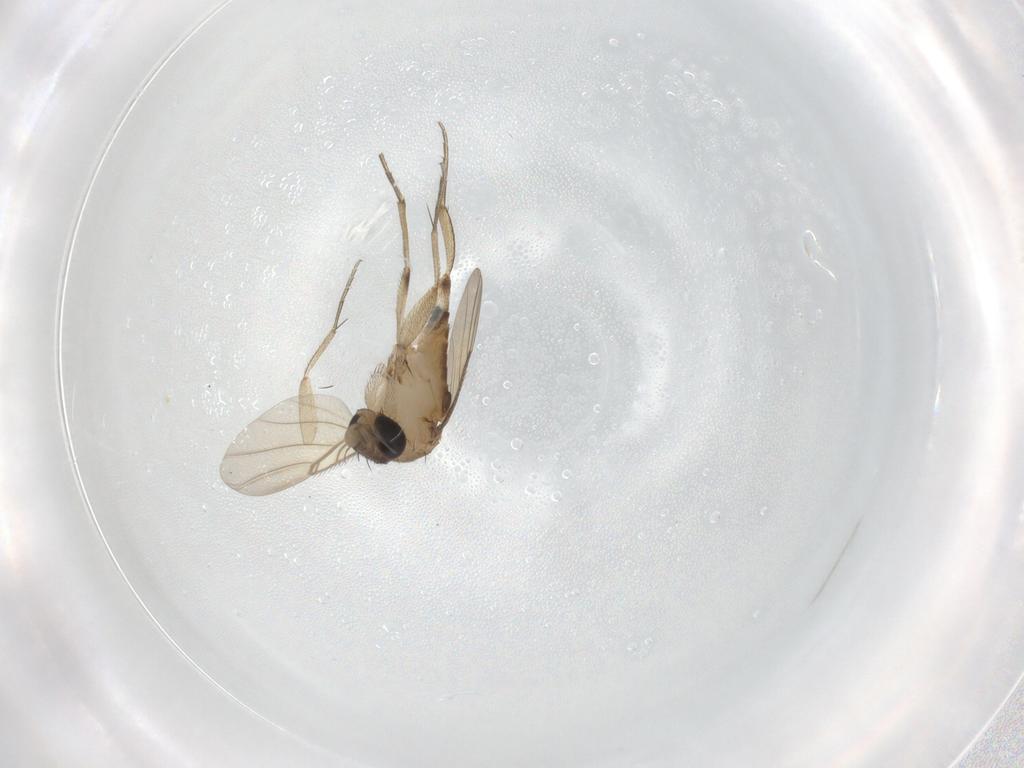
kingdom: Animalia
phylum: Arthropoda
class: Insecta
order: Diptera
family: Phoridae
